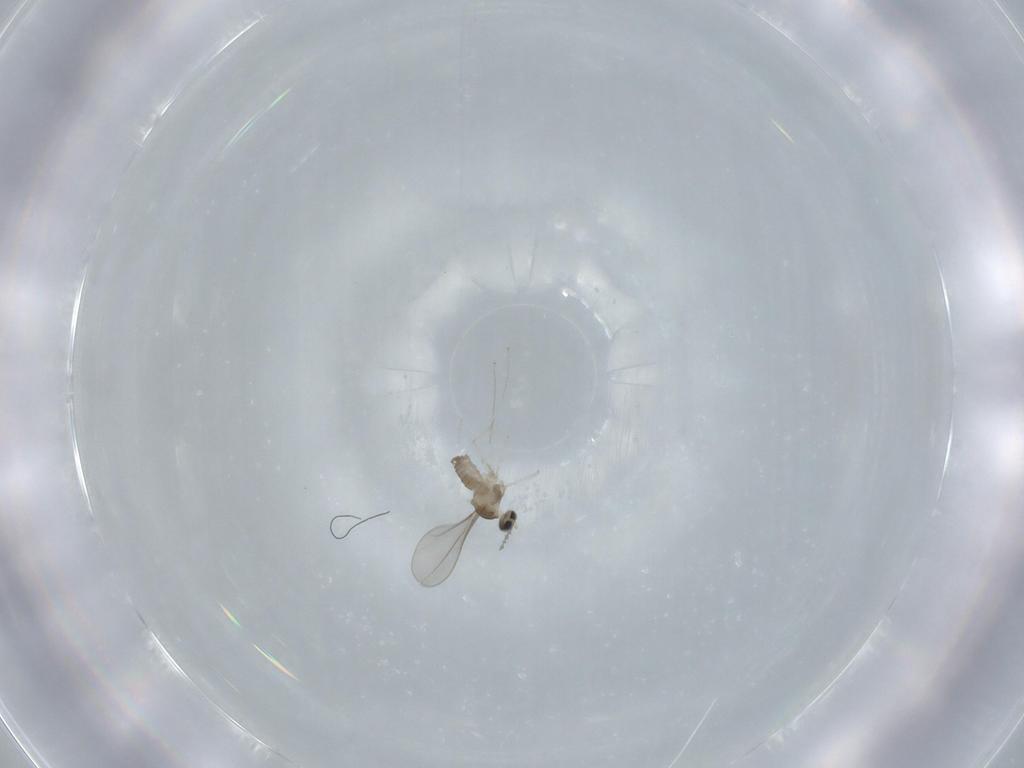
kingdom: Animalia
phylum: Arthropoda
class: Insecta
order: Diptera
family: Cecidomyiidae
